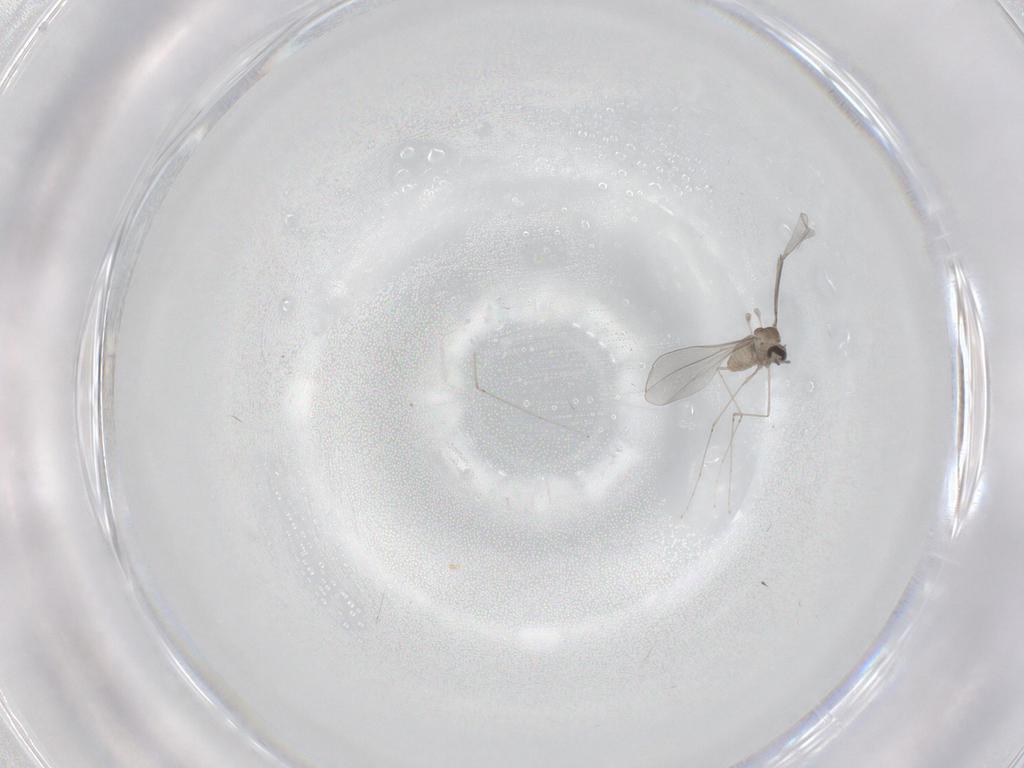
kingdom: Animalia
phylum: Arthropoda
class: Insecta
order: Diptera
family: Cecidomyiidae
